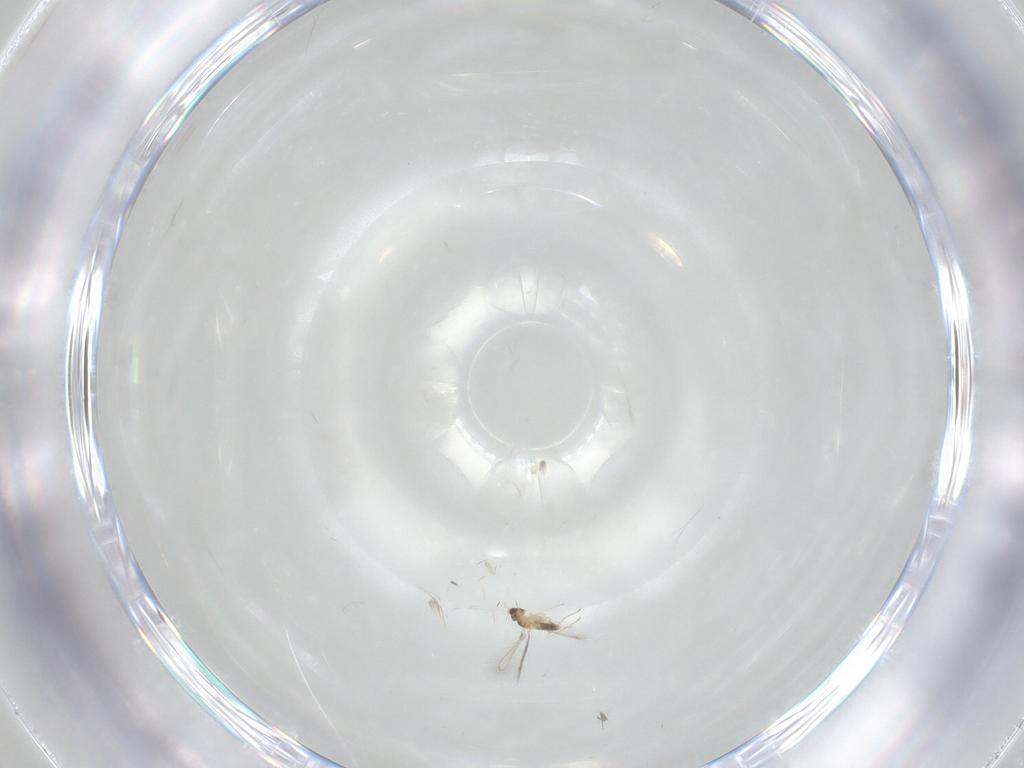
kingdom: Animalia
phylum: Arthropoda
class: Insecta
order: Hymenoptera
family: Mymaridae
